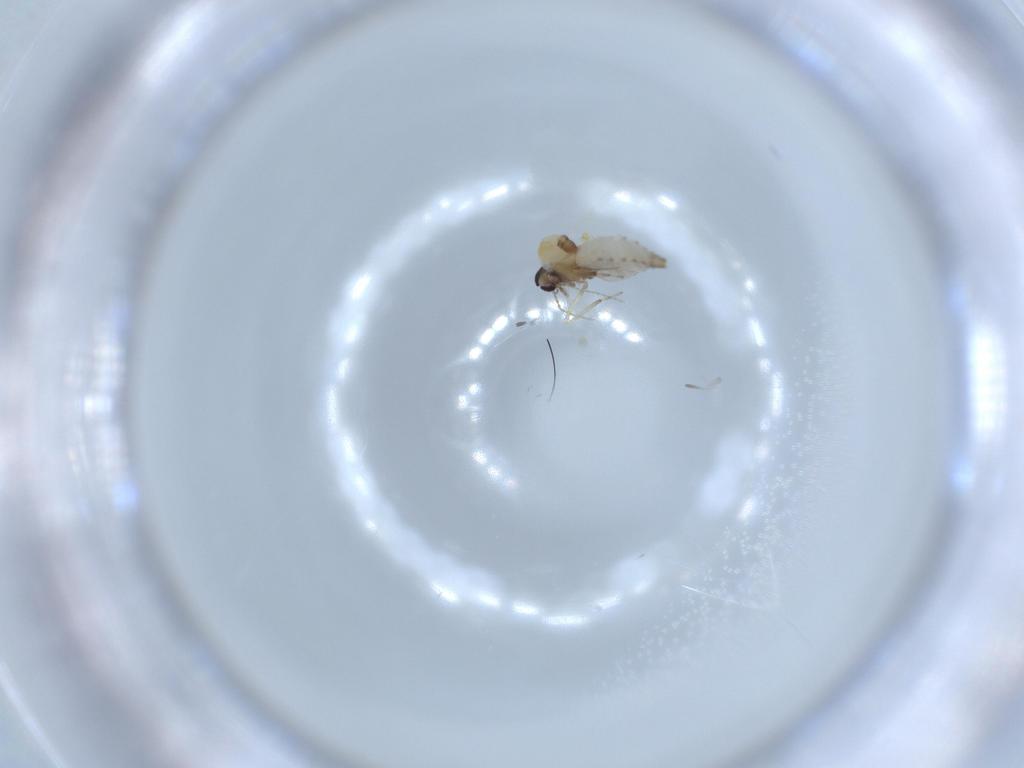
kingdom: Animalia
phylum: Arthropoda
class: Insecta
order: Diptera
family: Ceratopogonidae
